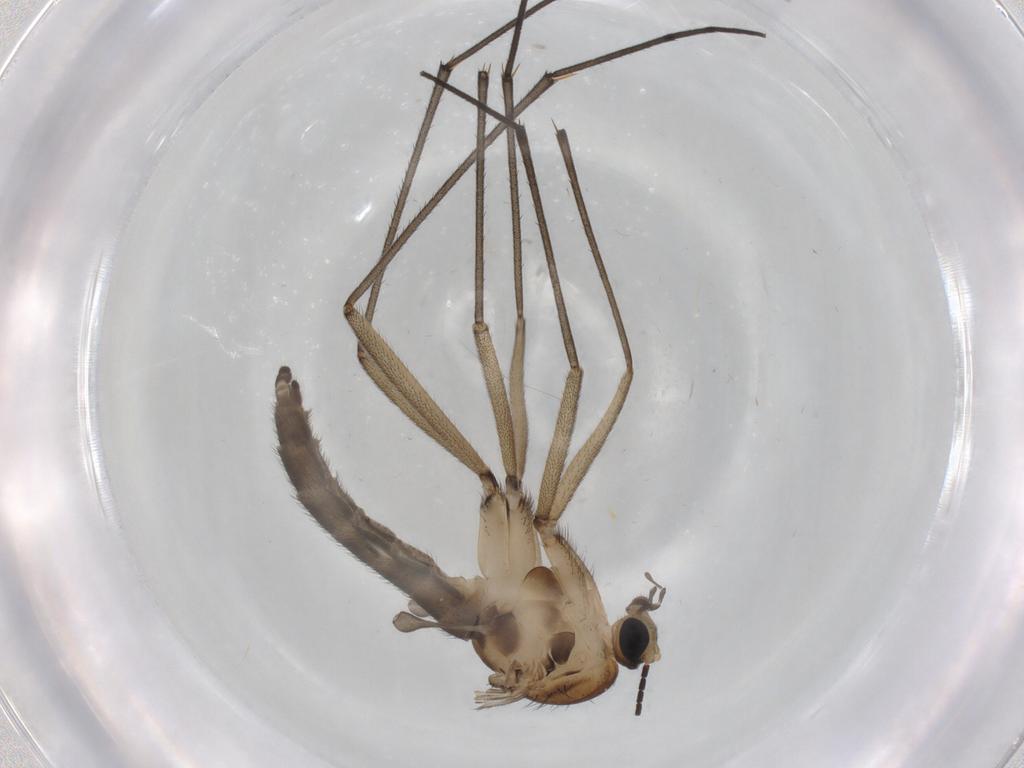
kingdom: Animalia
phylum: Arthropoda
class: Insecta
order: Diptera
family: Sciaridae
